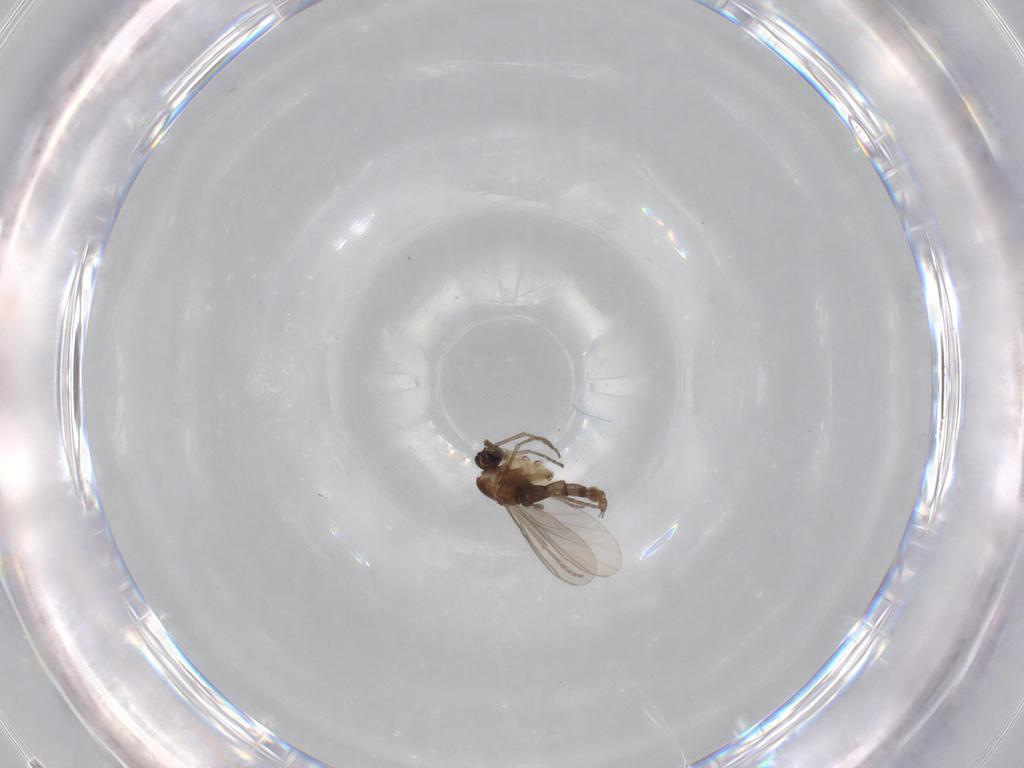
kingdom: Animalia
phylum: Arthropoda
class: Insecta
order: Diptera
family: Sciaridae
